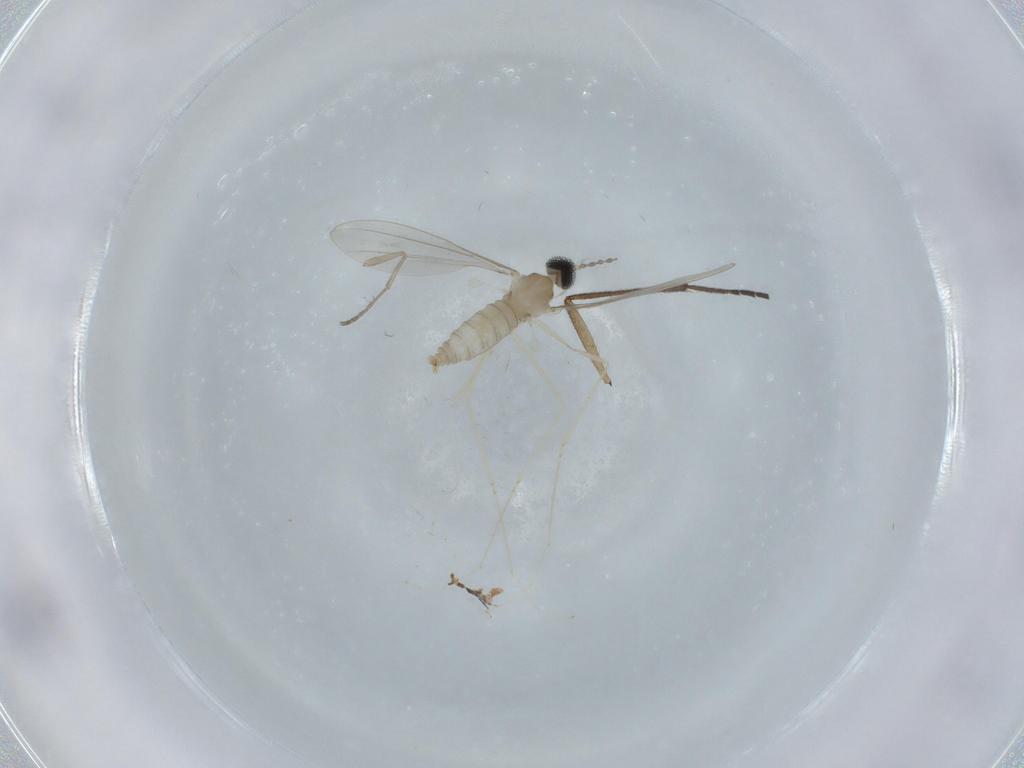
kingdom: Animalia
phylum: Arthropoda
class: Insecta
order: Diptera
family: Cecidomyiidae
